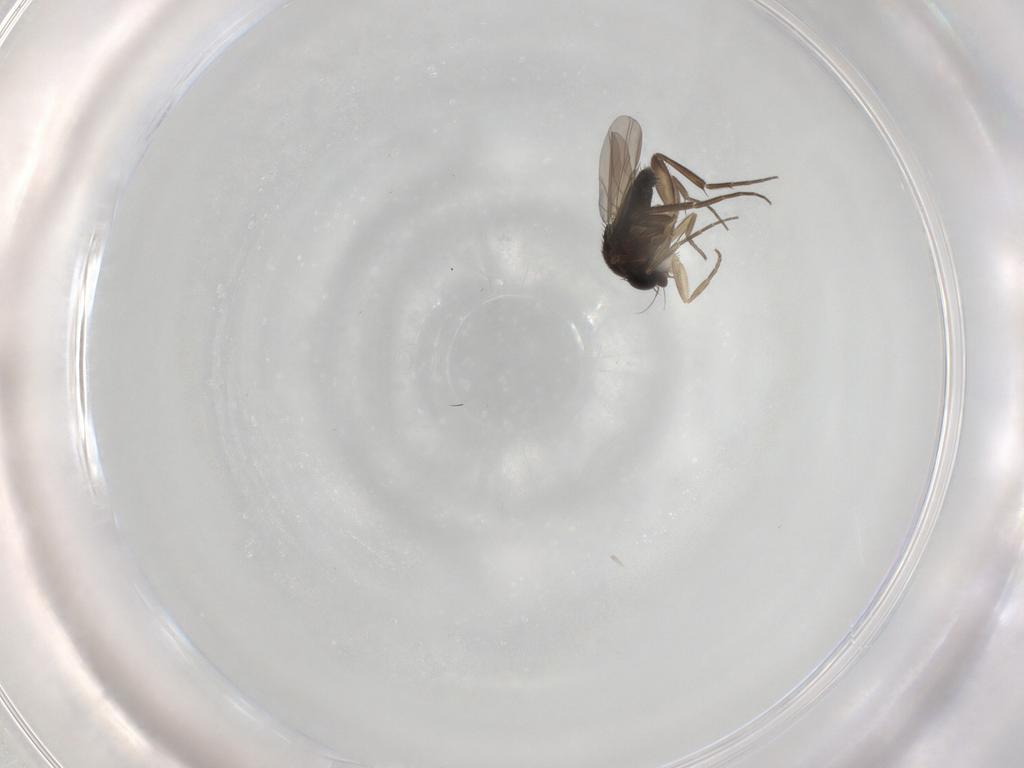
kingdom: Animalia
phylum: Arthropoda
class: Insecta
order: Diptera
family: Phoridae
